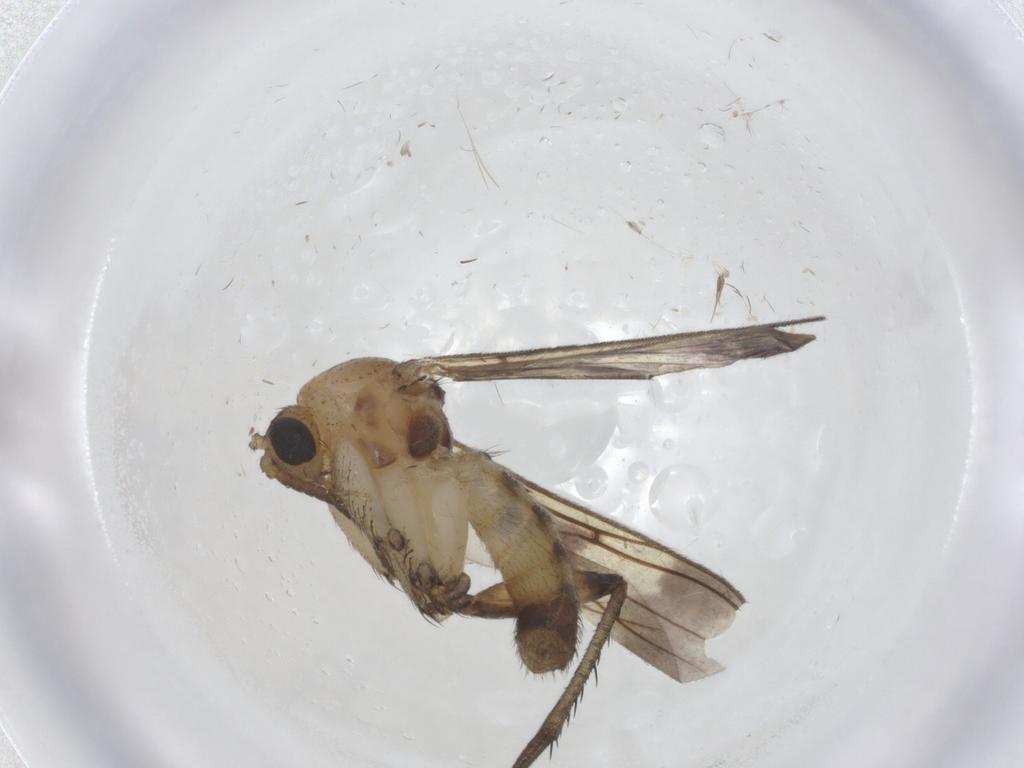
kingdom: Animalia
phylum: Arthropoda
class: Insecta
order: Diptera
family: Mycetophilidae
